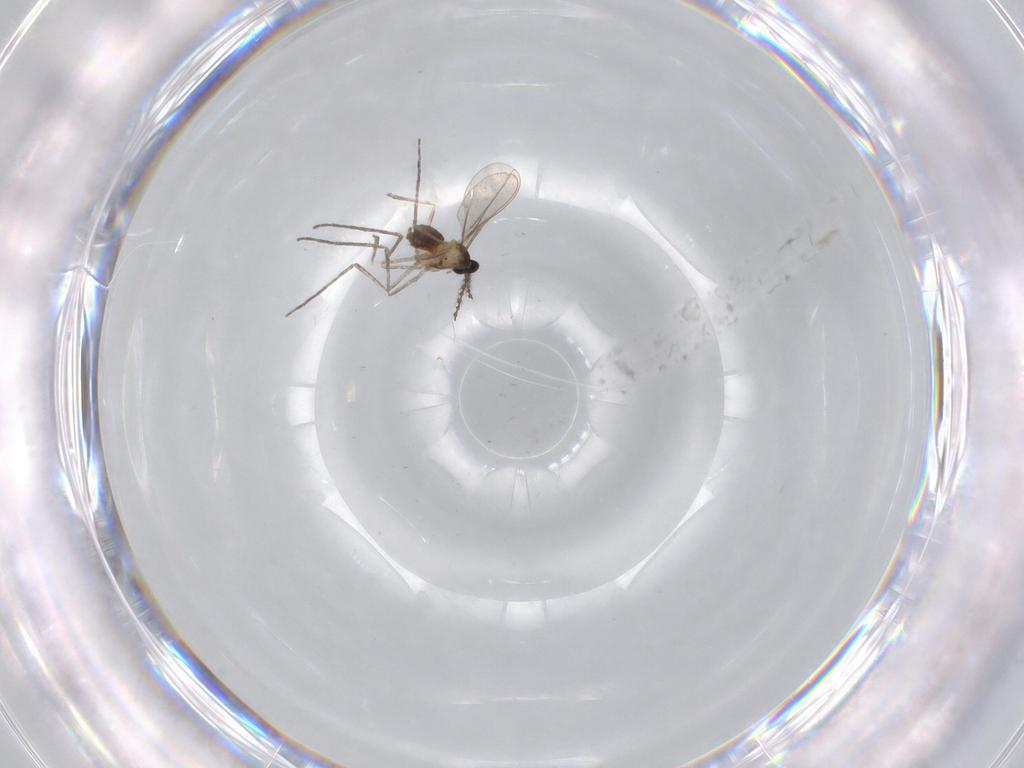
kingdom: Animalia
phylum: Arthropoda
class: Insecta
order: Diptera
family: Cecidomyiidae
